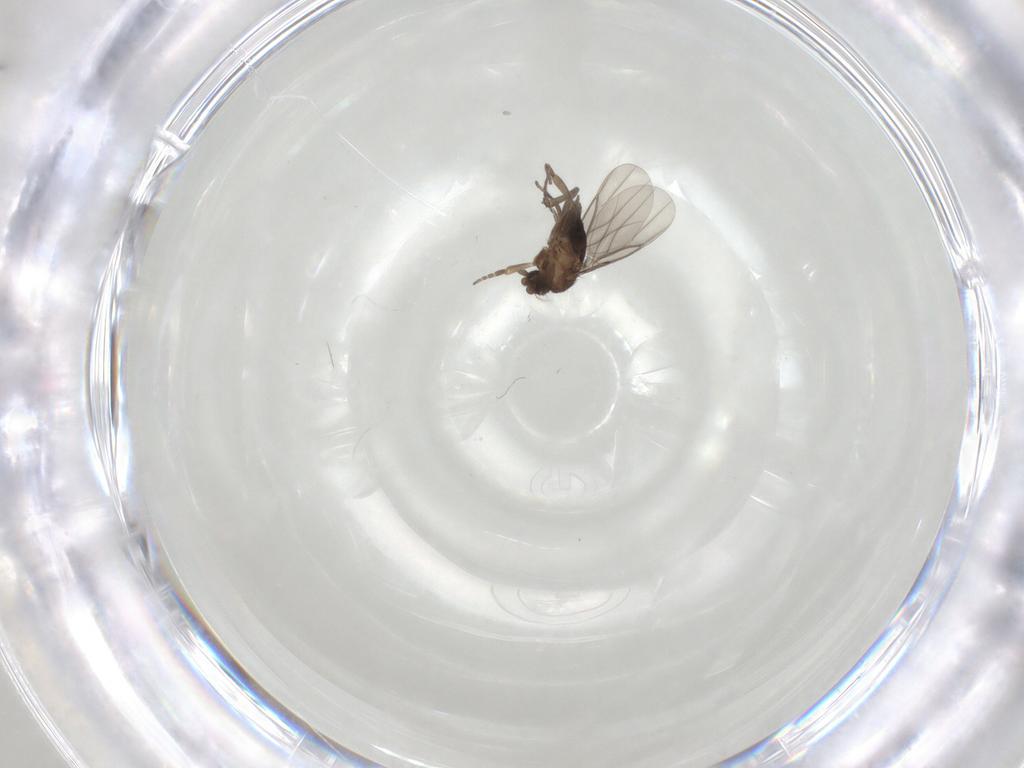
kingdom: Animalia
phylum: Arthropoda
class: Insecta
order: Diptera
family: Phoridae
